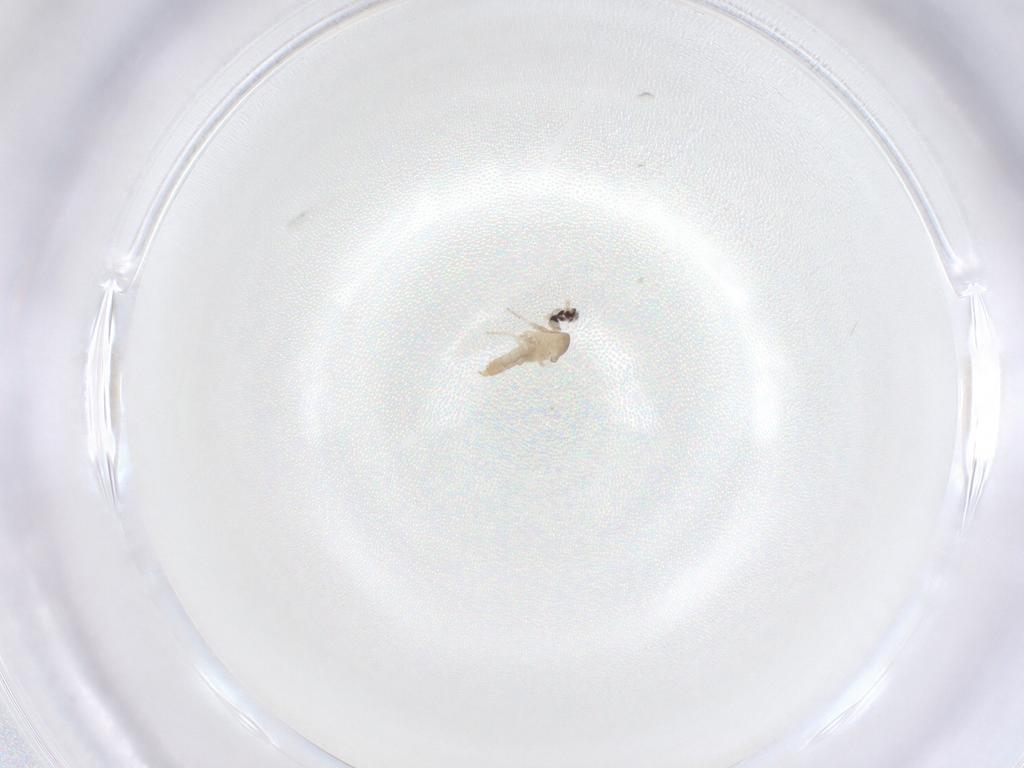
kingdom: Animalia
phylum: Arthropoda
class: Insecta
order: Diptera
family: Cecidomyiidae
